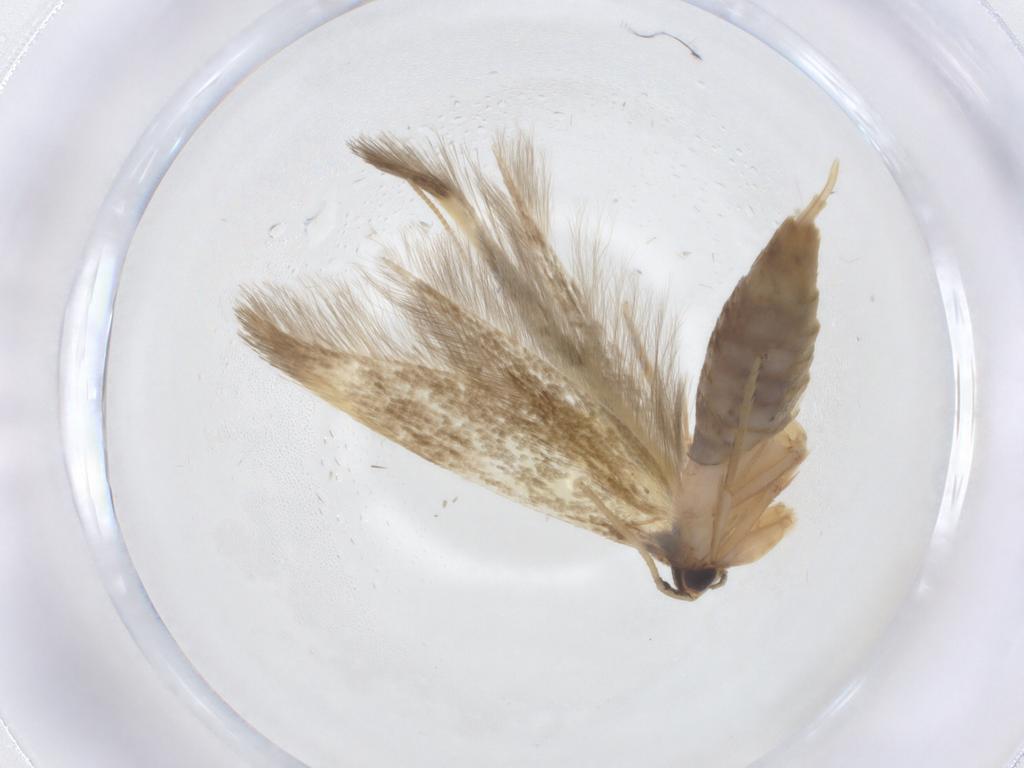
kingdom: Animalia
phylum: Arthropoda
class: Insecta
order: Lepidoptera
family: Tineidae
